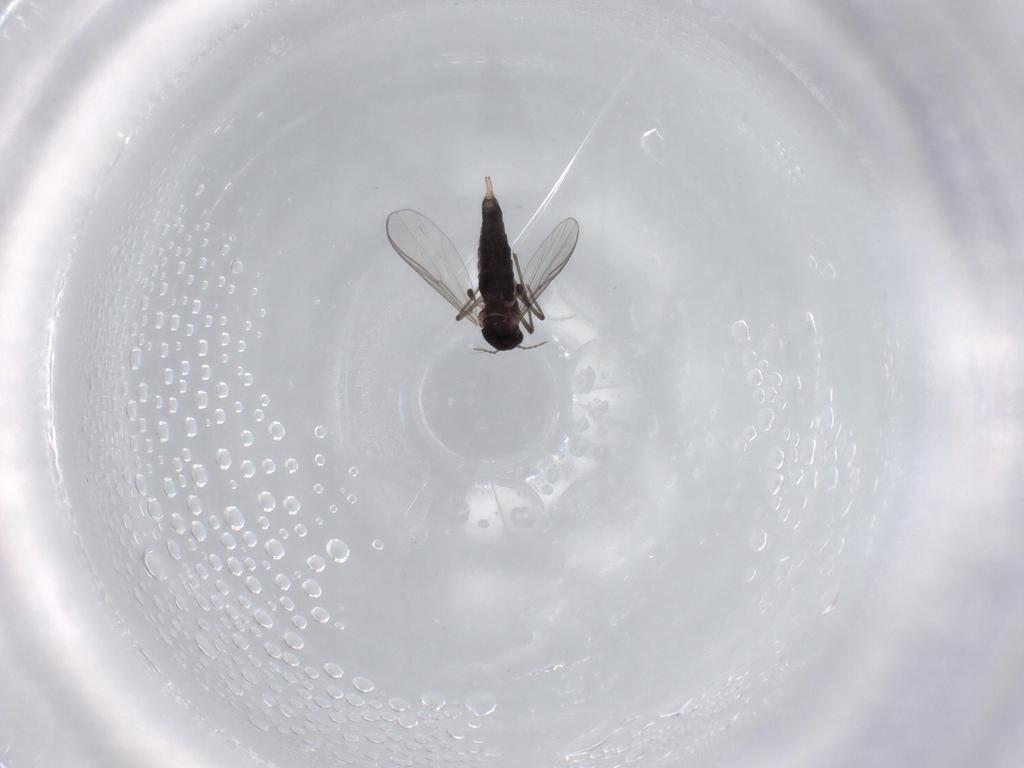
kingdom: Animalia
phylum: Arthropoda
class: Insecta
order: Diptera
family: Chironomidae
